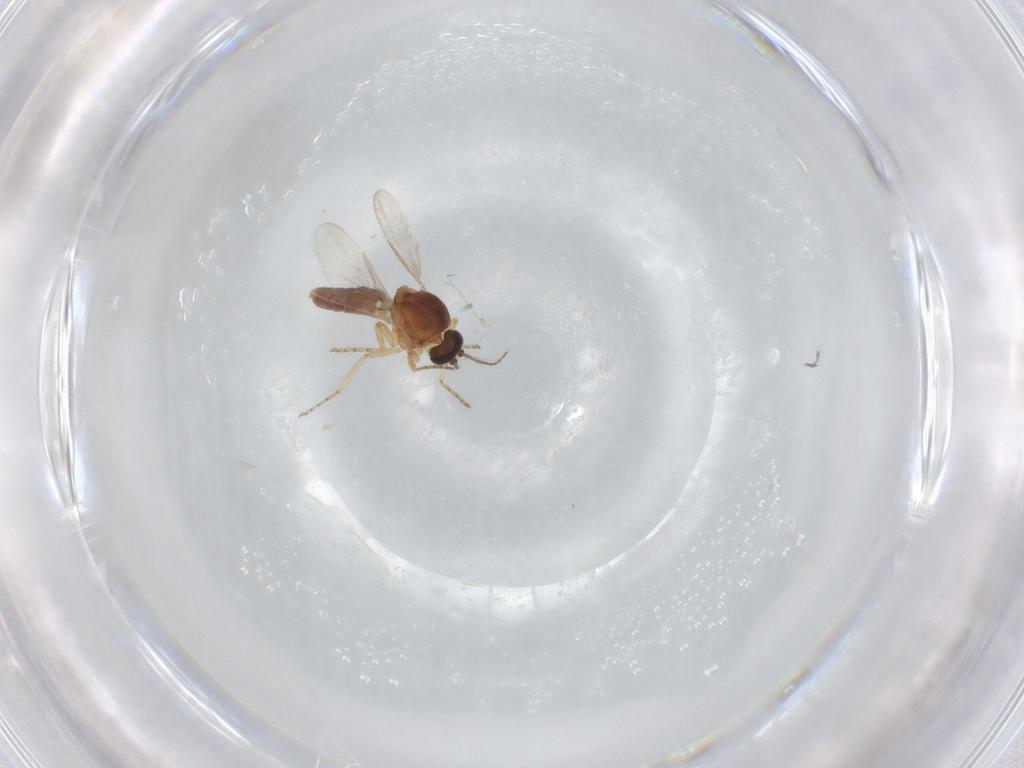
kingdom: Animalia
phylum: Arthropoda
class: Insecta
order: Diptera
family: Ceratopogonidae
